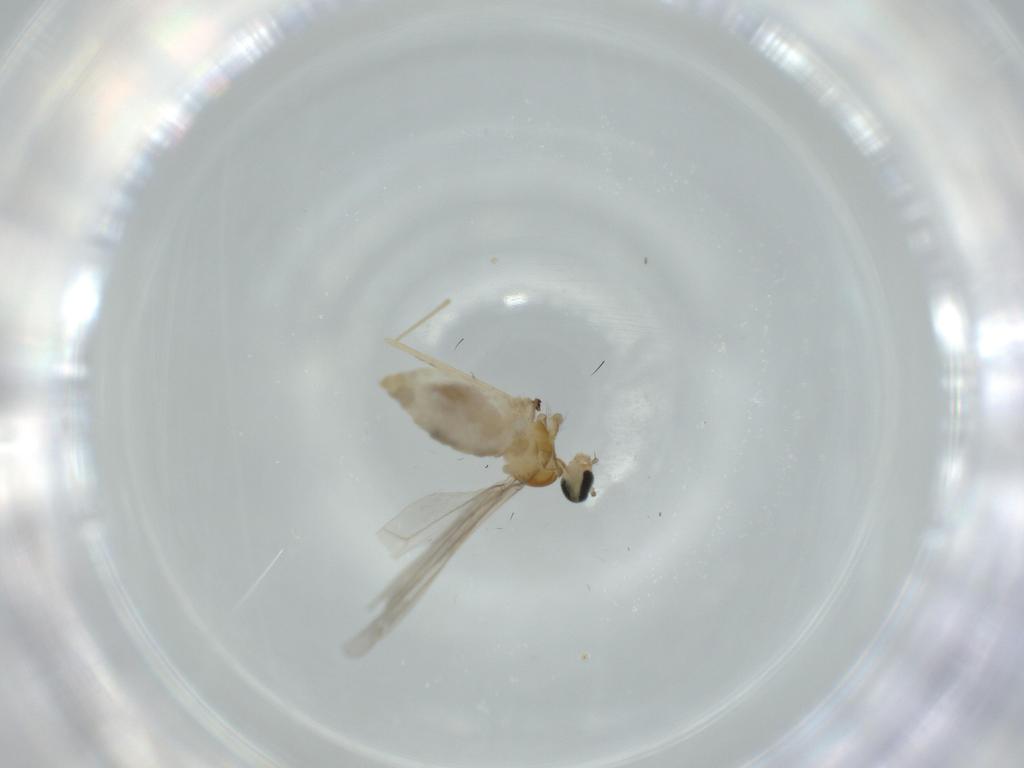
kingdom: Animalia
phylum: Arthropoda
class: Insecta
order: Diptera
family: Cecidomyiidae
